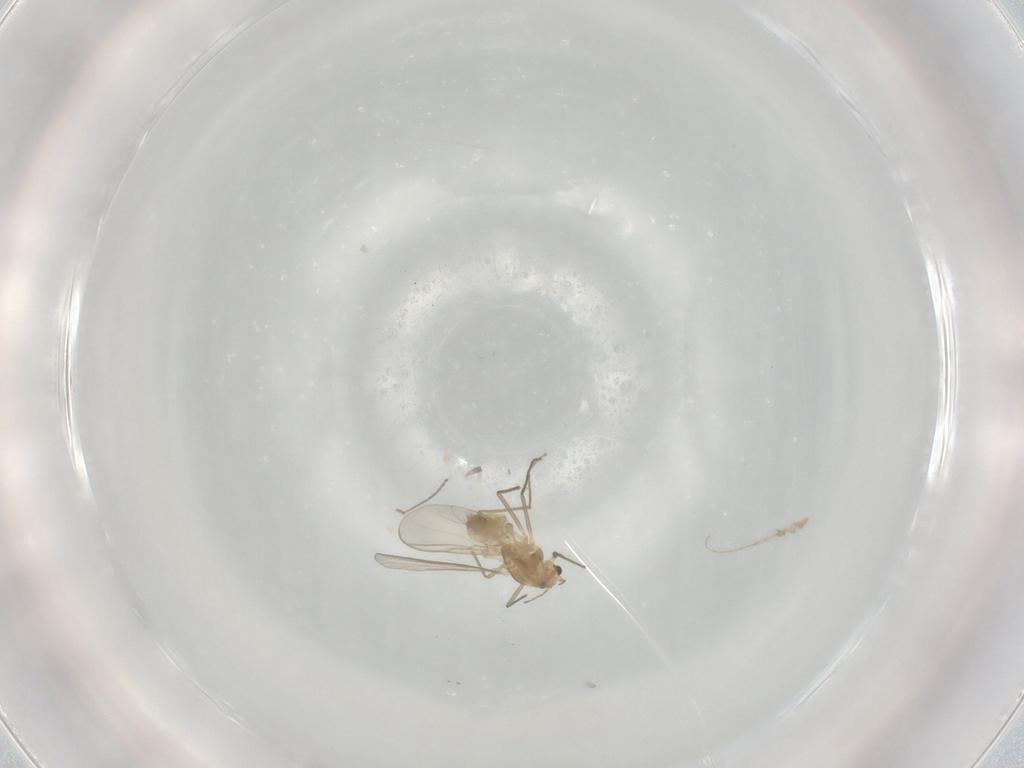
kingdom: Animalia
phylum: Arthropoda
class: Insecta
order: Diptera
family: Chironomidae
